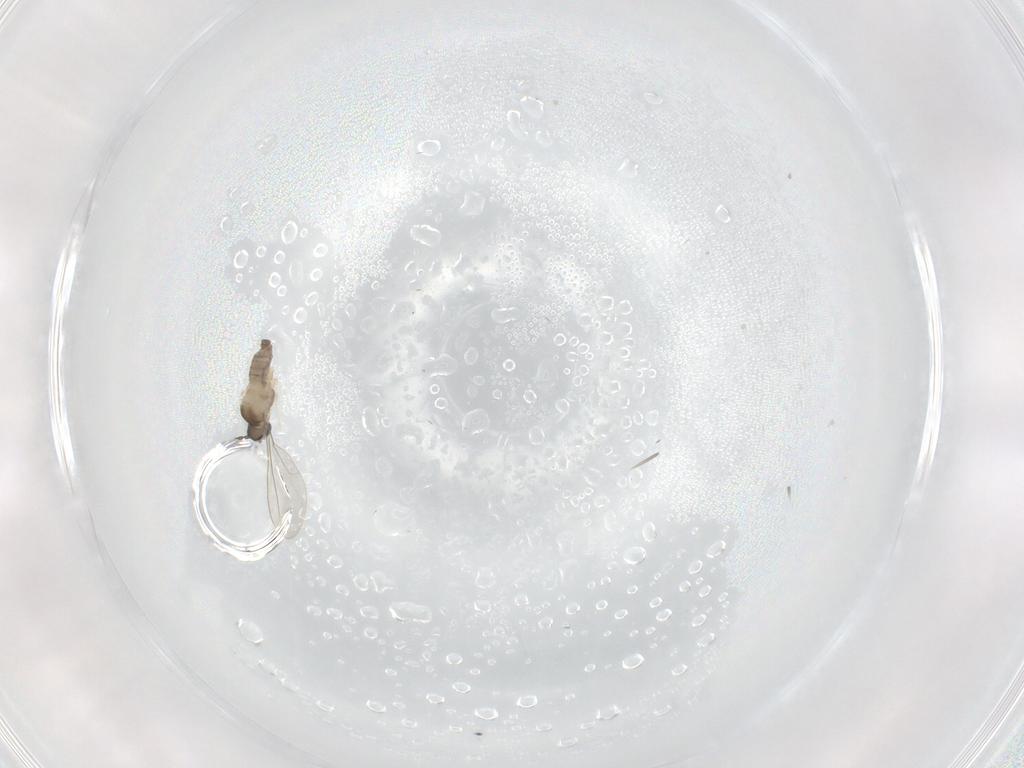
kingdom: Animalia
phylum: Arthropoda
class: Insecta
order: Diptera
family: Cecidomyiidae
